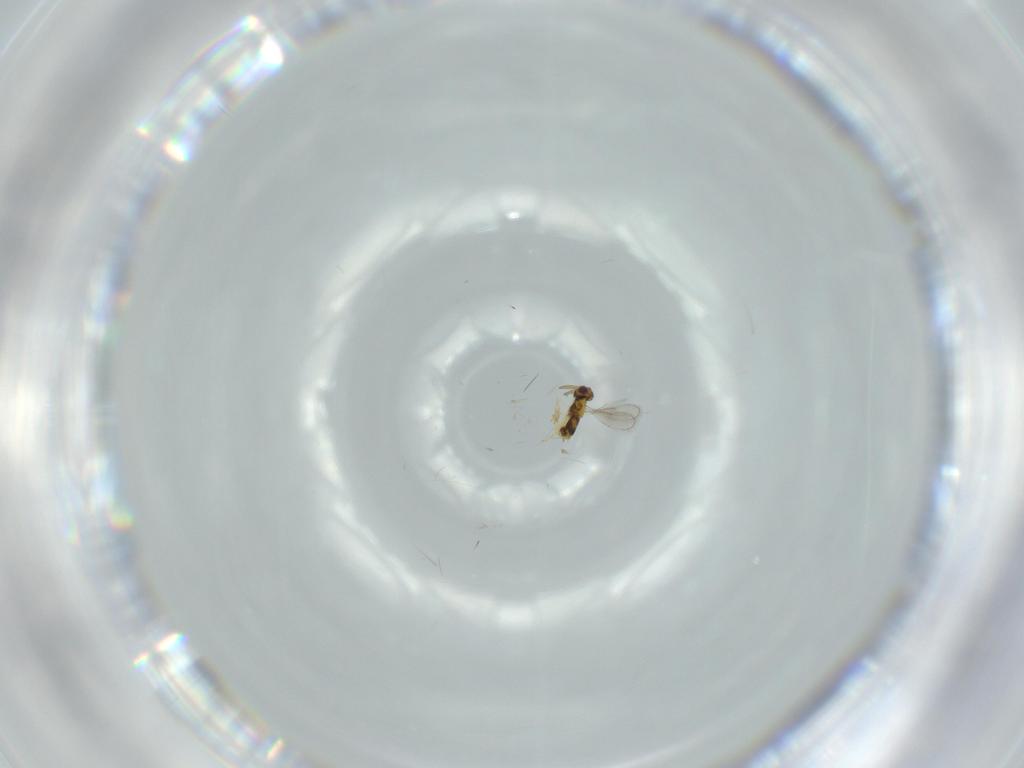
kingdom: Animalia
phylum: Arthropoda
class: Insecta
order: Hymenoptera
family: Aphelinidae
